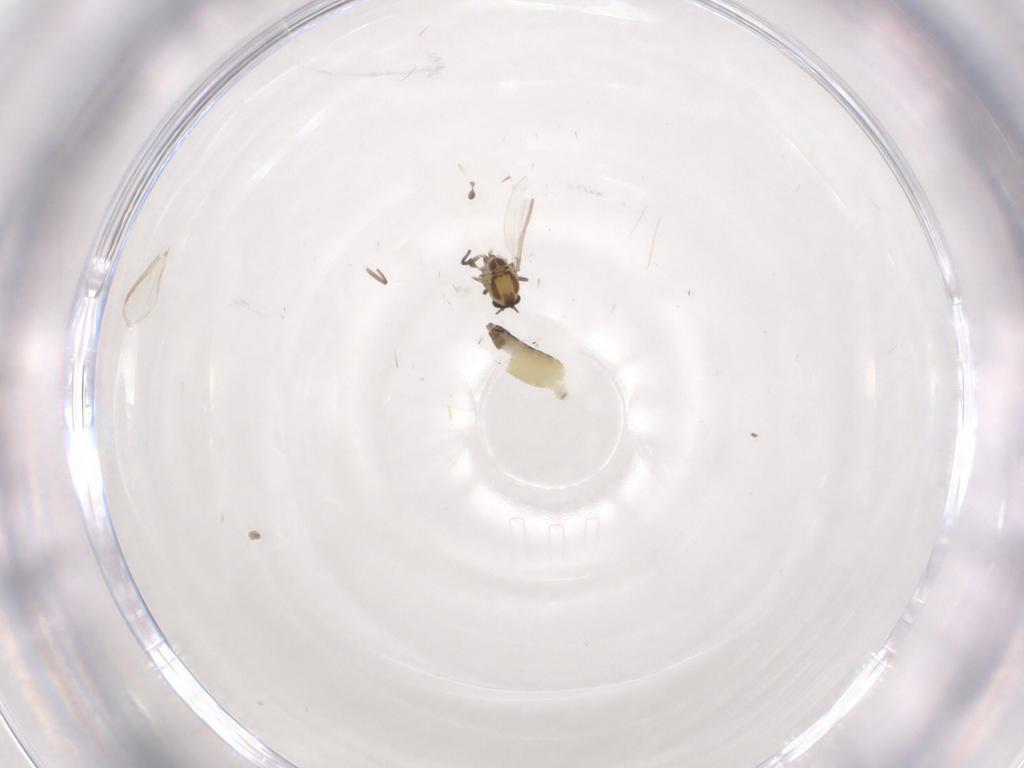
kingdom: Animalia
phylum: Arthropoda
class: Insecta
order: Diptera
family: Chironomidae
